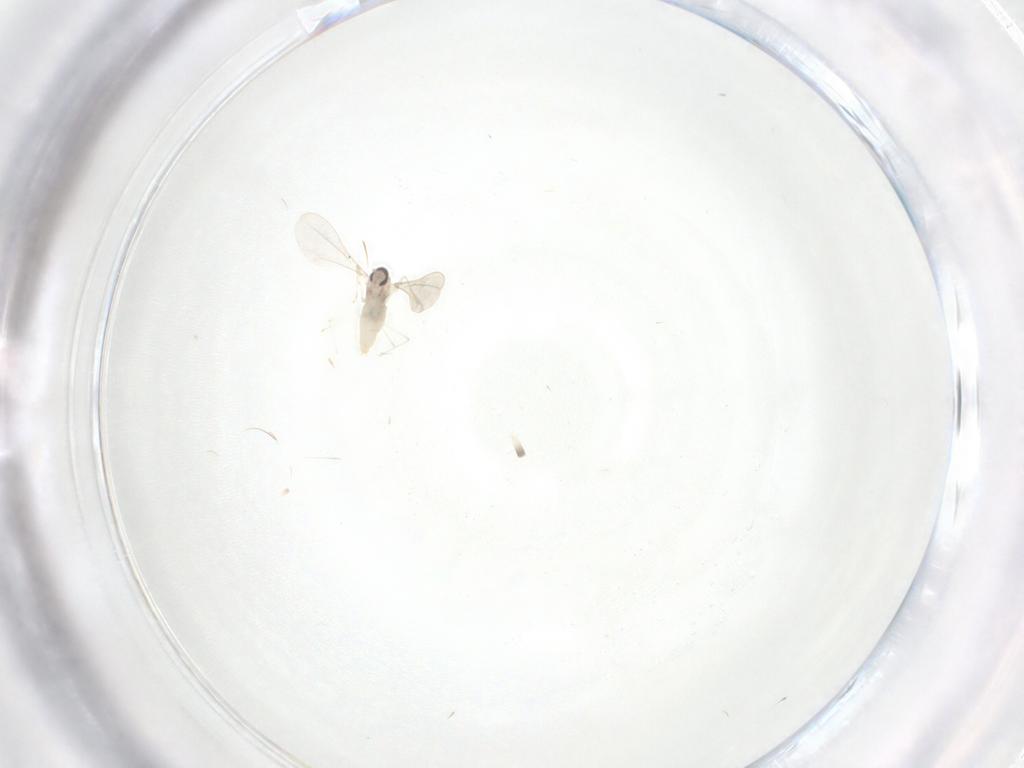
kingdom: Animalia
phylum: Arthropoda
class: Insecta
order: Diptera
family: Cecidomyiidae
